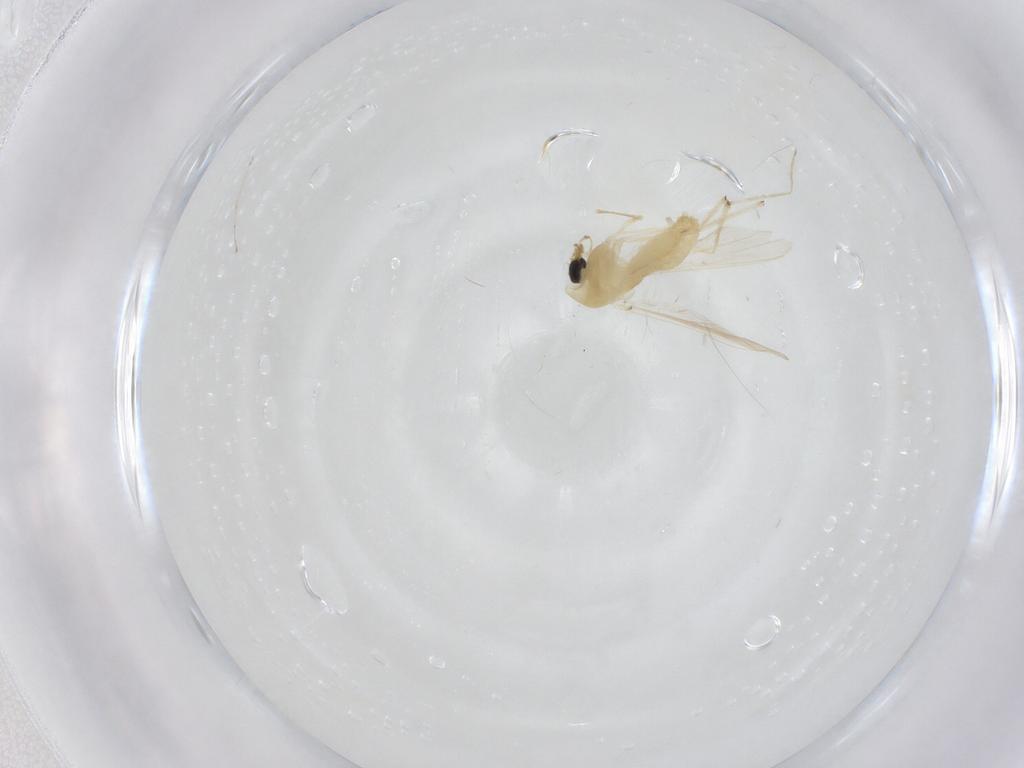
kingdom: Animalia
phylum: Arthropoda
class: Insecta
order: Diptera
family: Chironomidae
